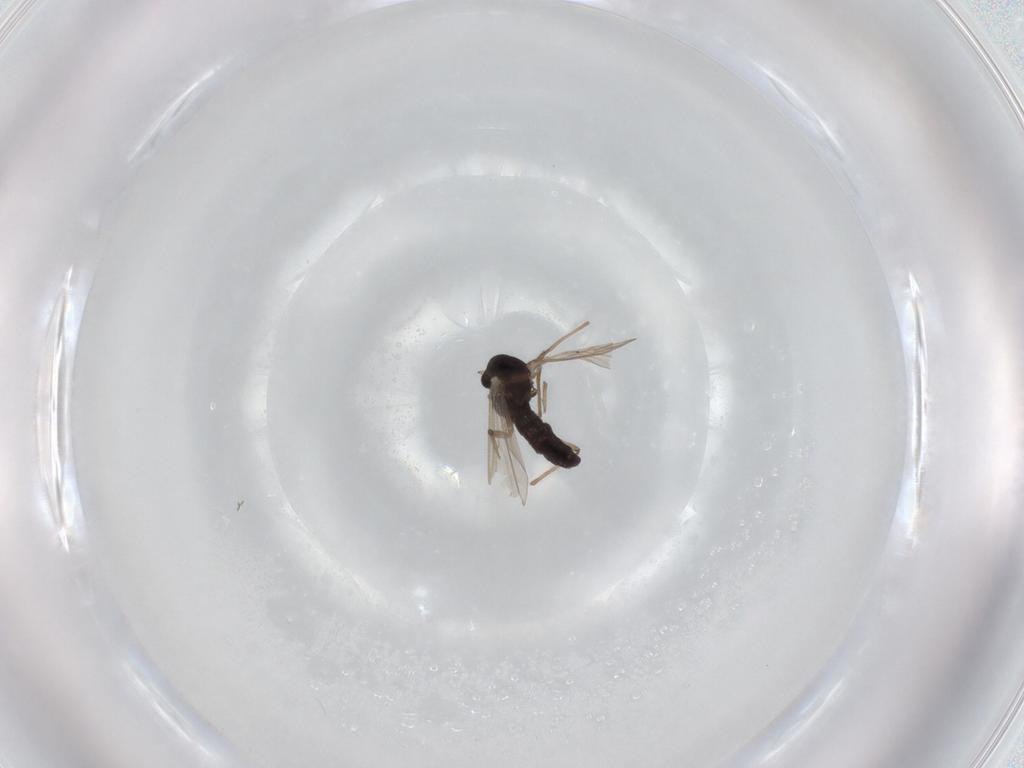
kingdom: Animalia
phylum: Arthropoda
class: Insecta
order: Diptera
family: Chironomidae
